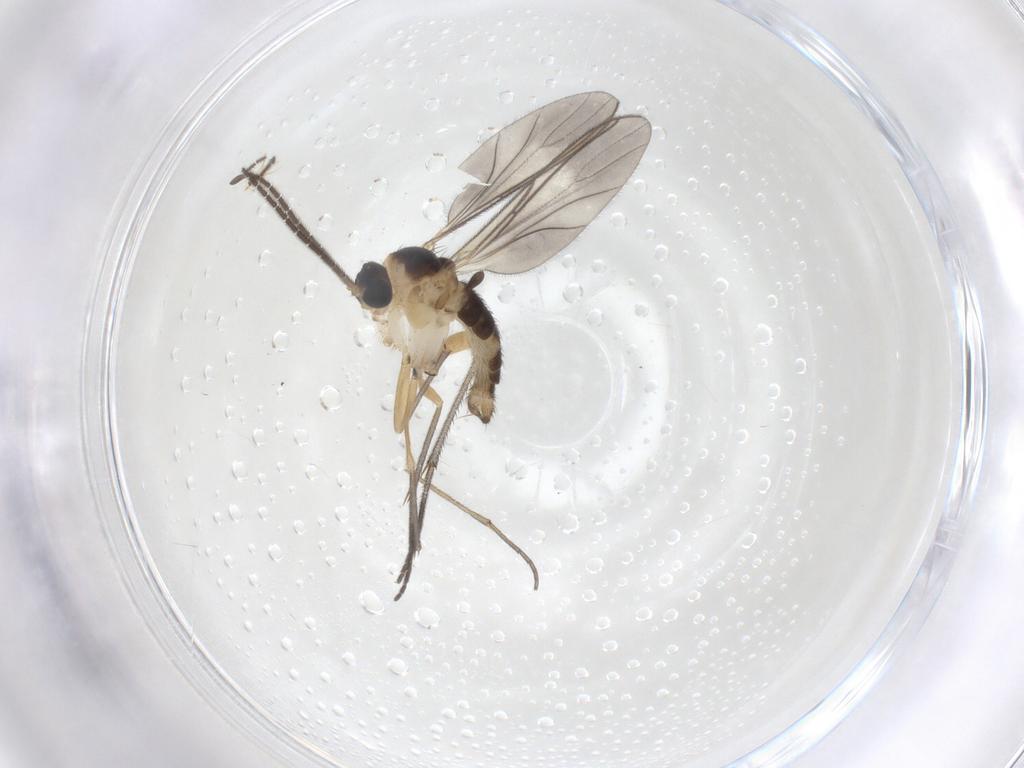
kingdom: Animalia
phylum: Arthropoda
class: Insecta
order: Diptera
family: Sciaridae
